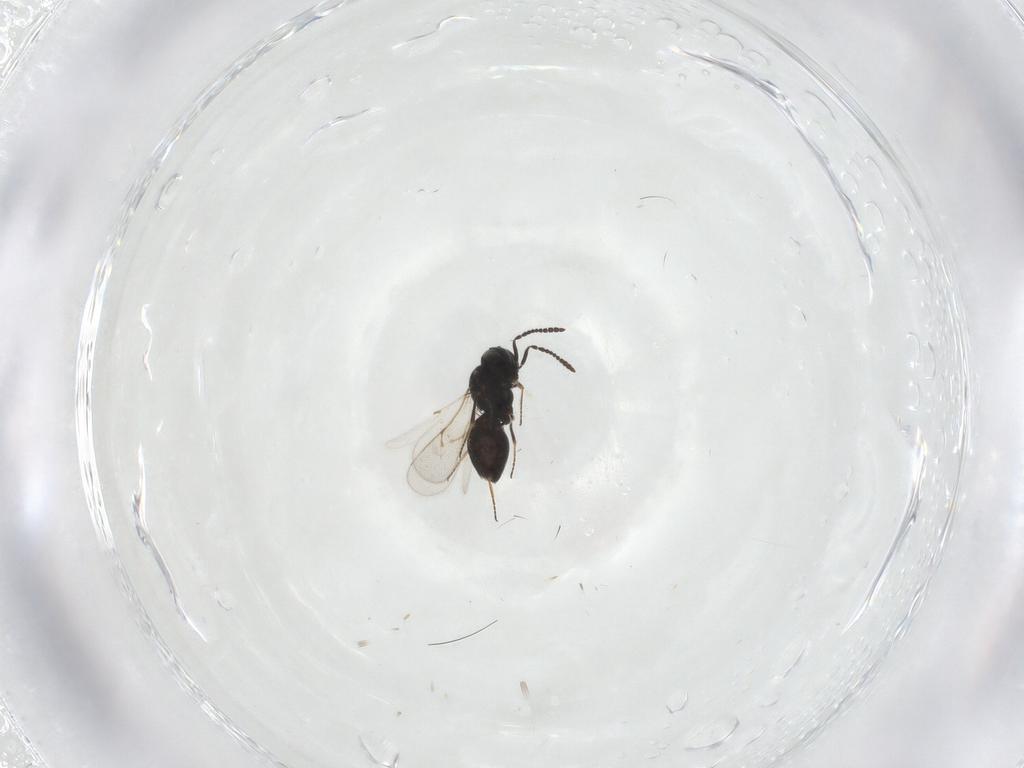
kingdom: Animalia
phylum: Arthropoda
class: Insecta
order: Hymenoptera
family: Scelionidae
